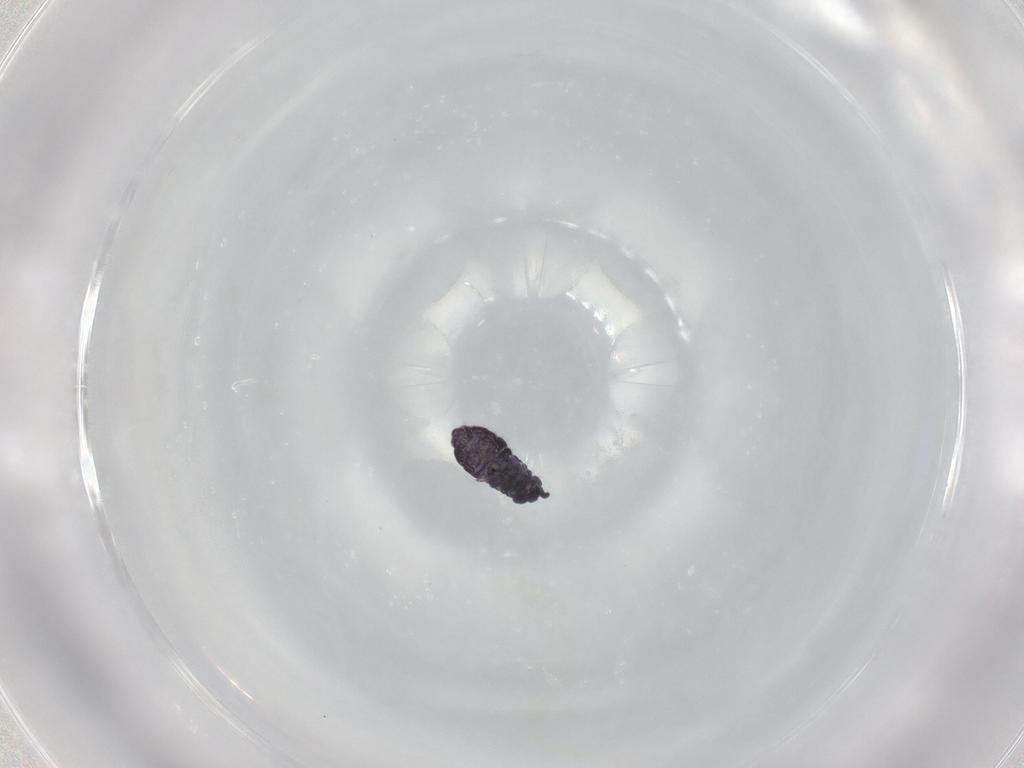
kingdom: Animalia
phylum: Arthropoda
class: Collembola
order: Poduromorpha
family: Brachystomellidae
